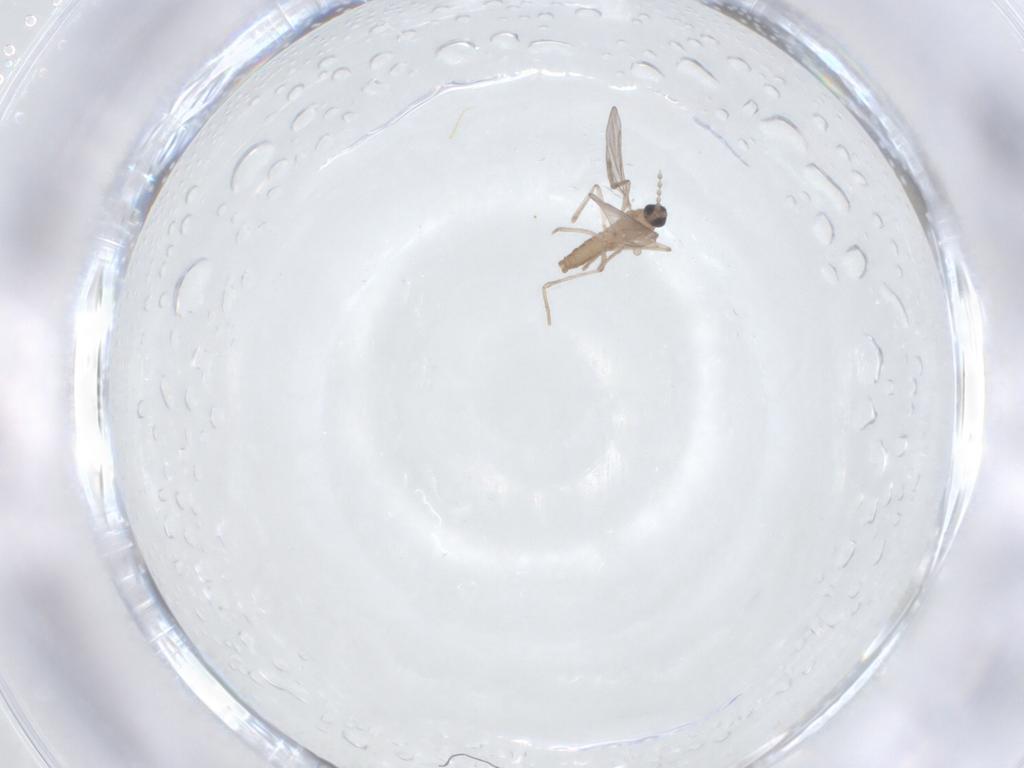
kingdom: Animalia
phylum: Arthropoda
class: Insecta
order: Diptera
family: Cecidomyiidae
